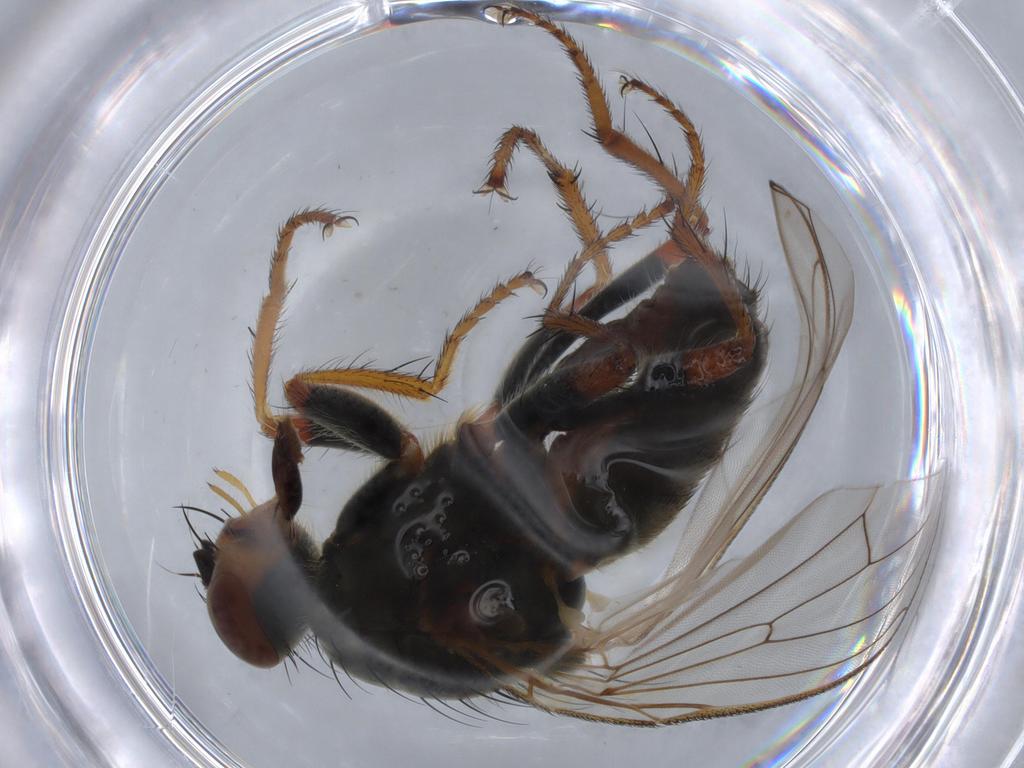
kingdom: Animalia
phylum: Arthropoda
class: Insecta
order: Diptera
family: Scathophagidae
